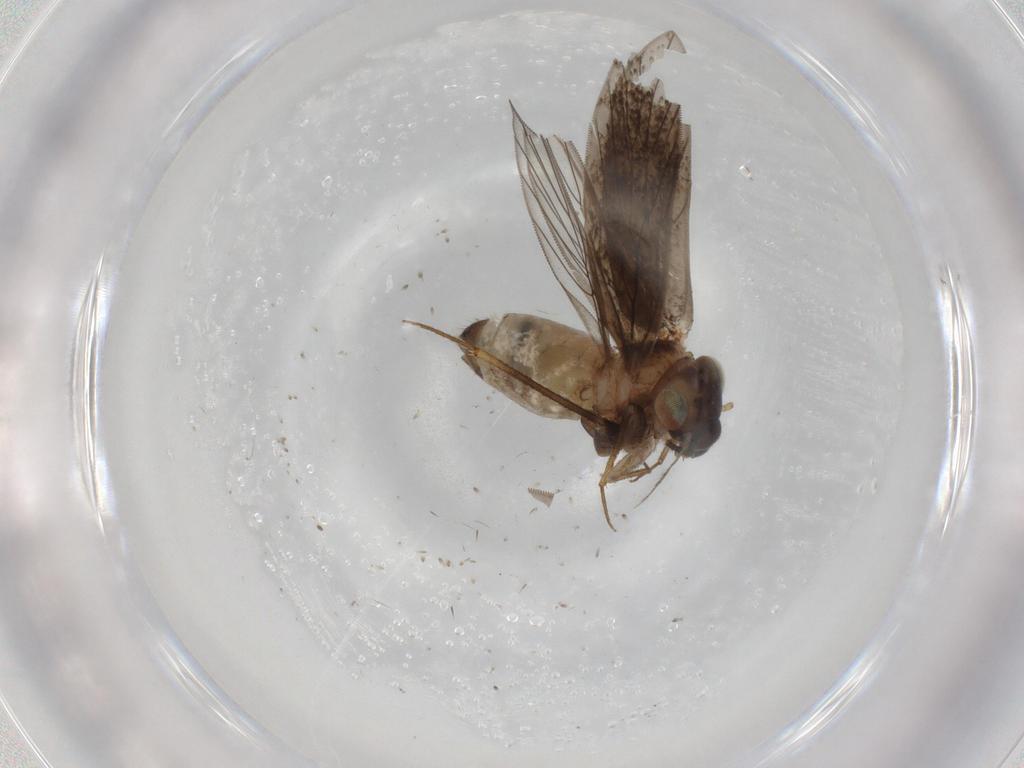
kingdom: Animalia
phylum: Arthropoda
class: Insecta
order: Psocodea
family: Lepidopsocidae
